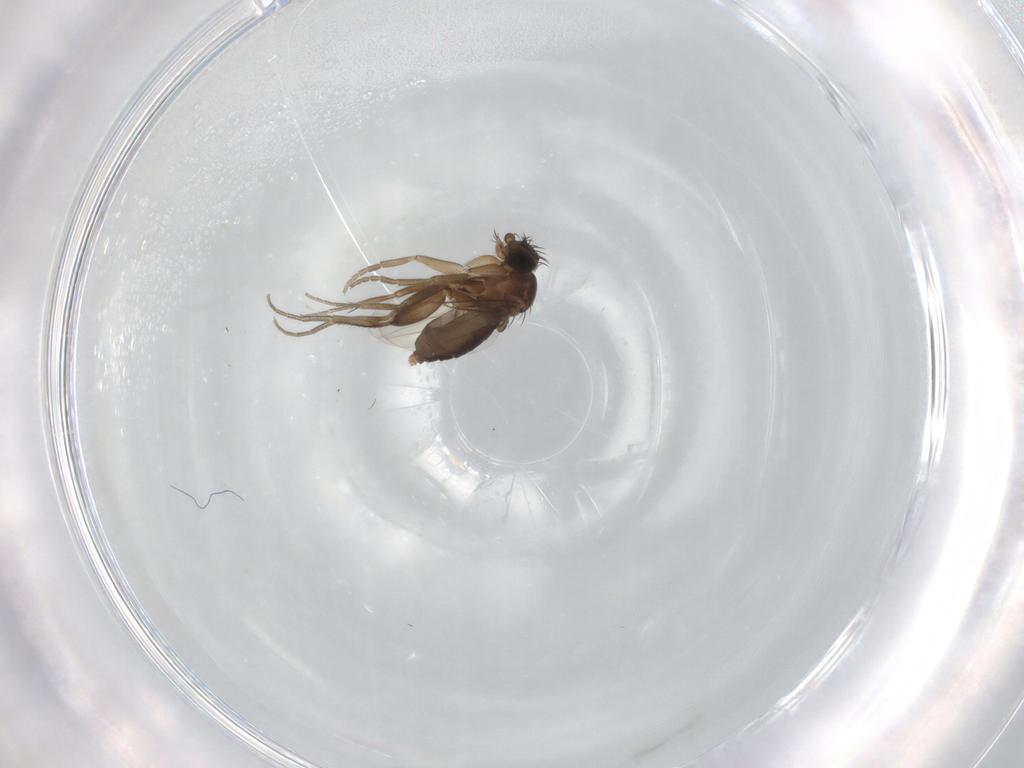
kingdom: Animalia
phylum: Arthropoda
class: Insecta
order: Diptera
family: Phoridae
